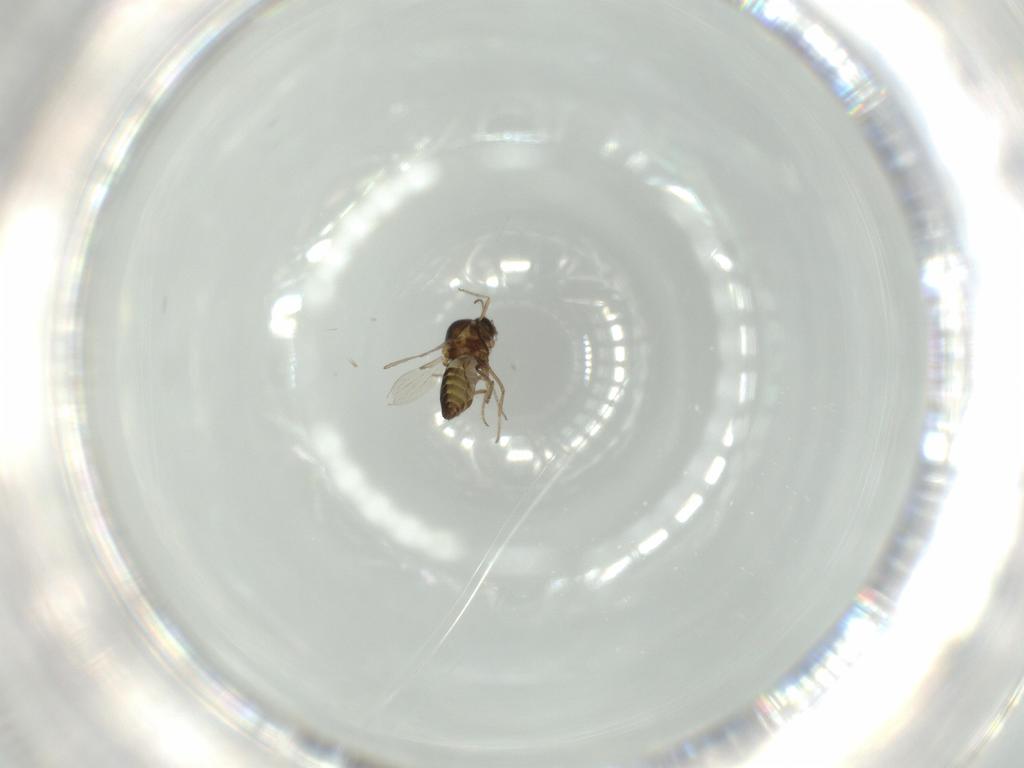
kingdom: Animalia
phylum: Arthropoda
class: Insecta
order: Diptera
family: Ceratopogonidae
